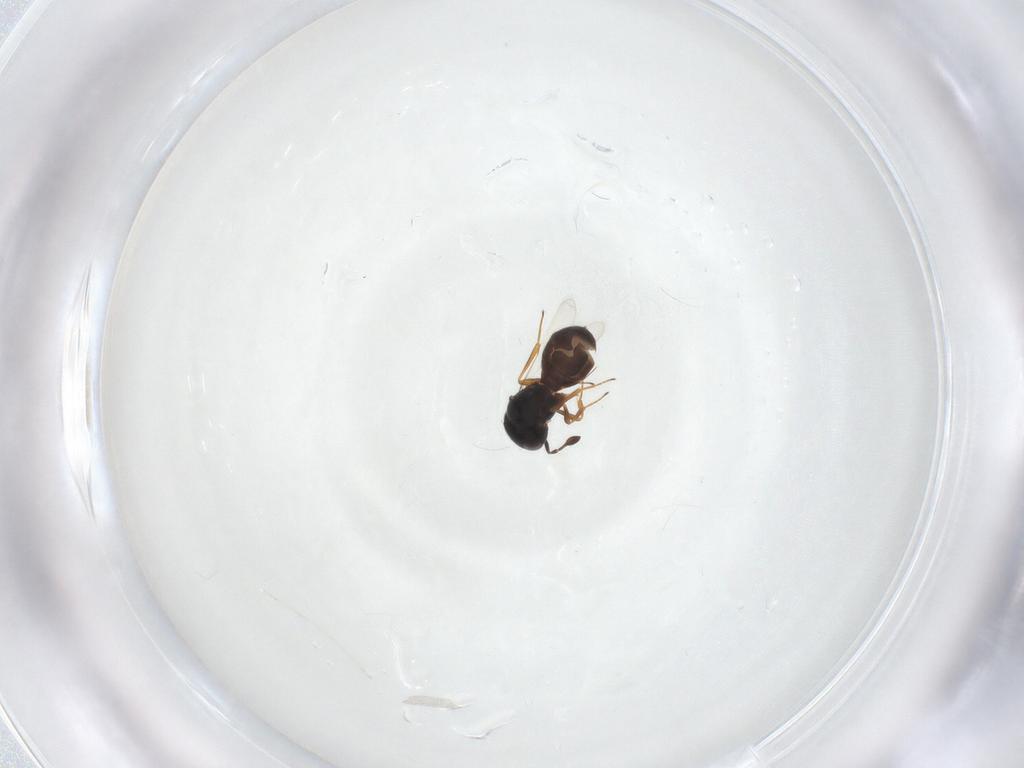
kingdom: Animalia
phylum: Arthropoda
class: Insecta
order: Hymenoptera
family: Scelionidae
